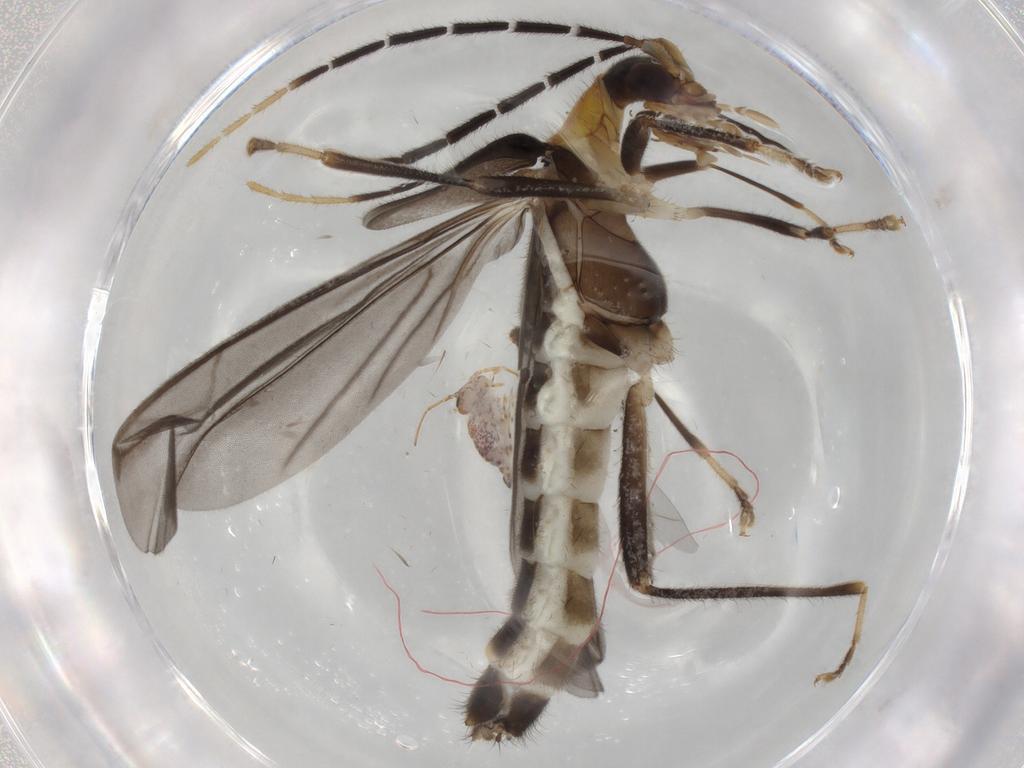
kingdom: Animalia
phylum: Arthropoda
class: Insecta
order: Coleoptera
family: Cantharidae
